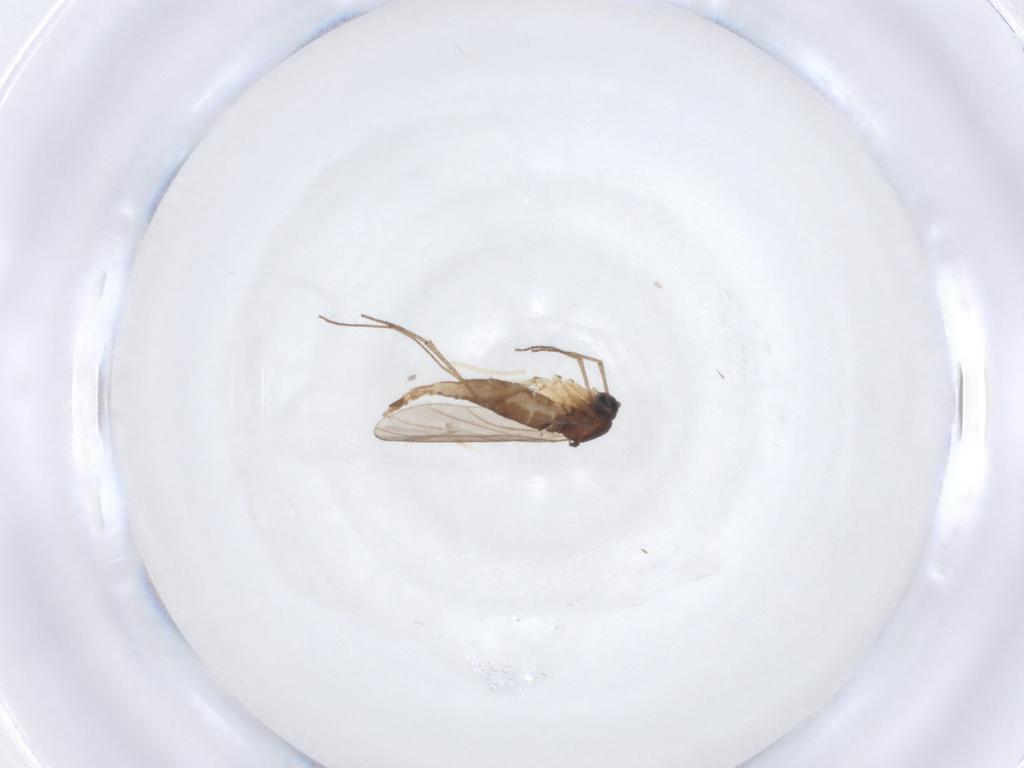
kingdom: Animalia
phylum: Arthropoda
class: Insecta
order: Diptera
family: Sciaridae
